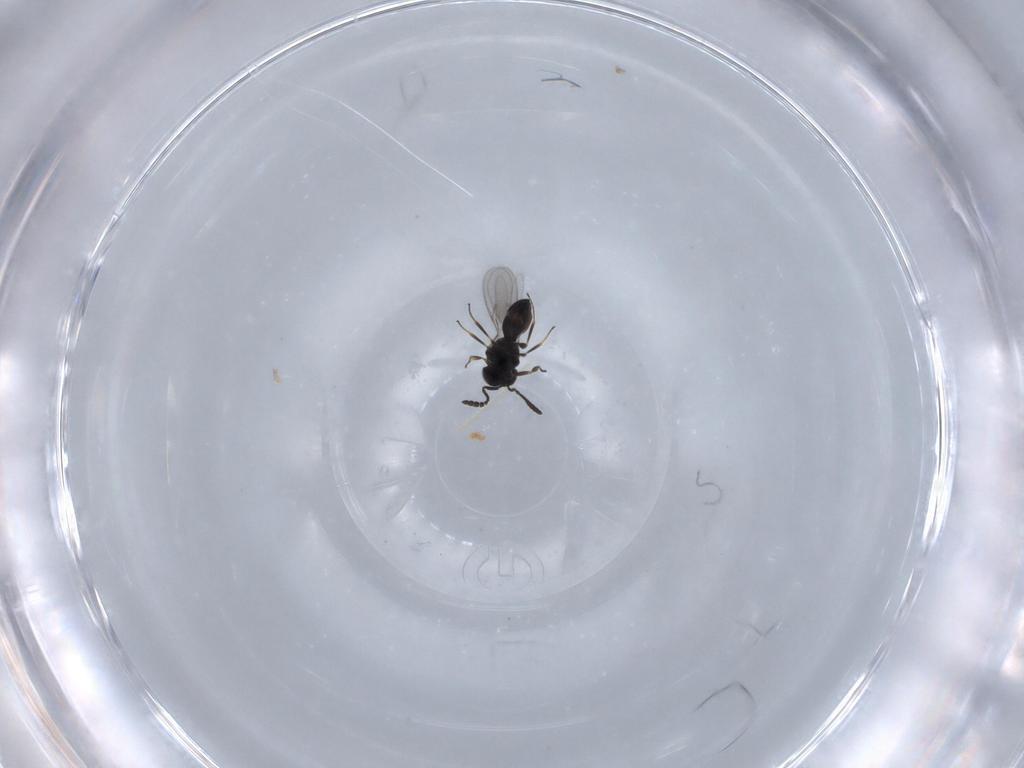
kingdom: Animalia
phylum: Arthropoda
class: Insecta
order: Hymenoptera
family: Scelionidae
